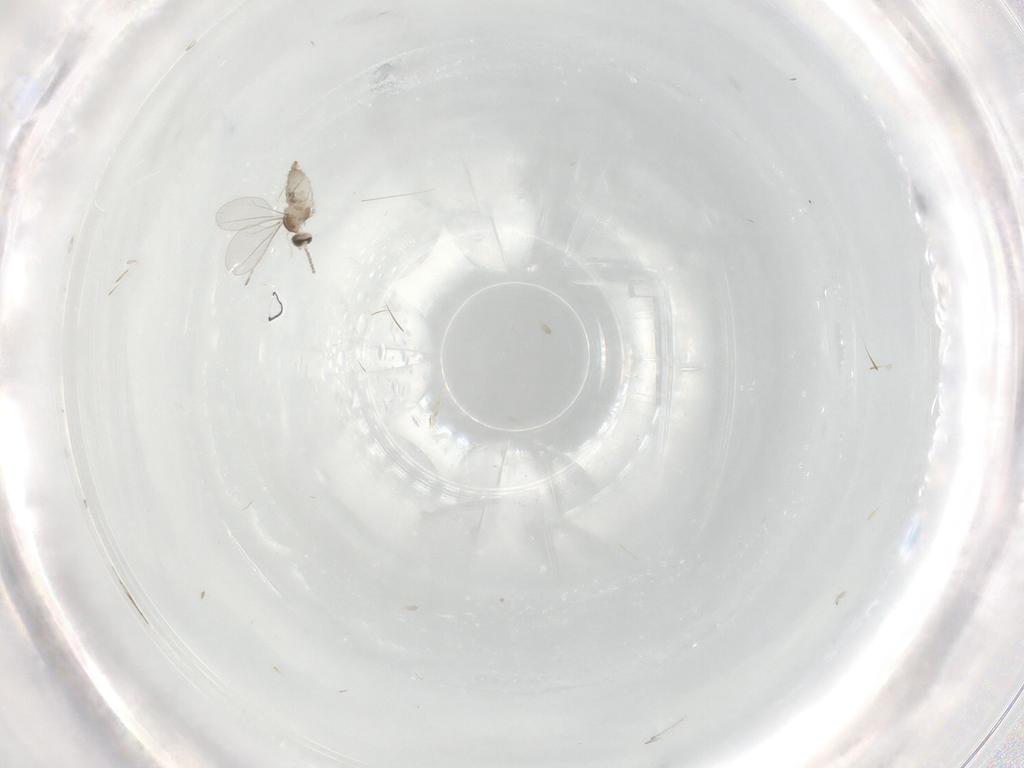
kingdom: Animalia
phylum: Arthropoda
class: Insecta
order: Diptera
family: Cecidomyiidae
